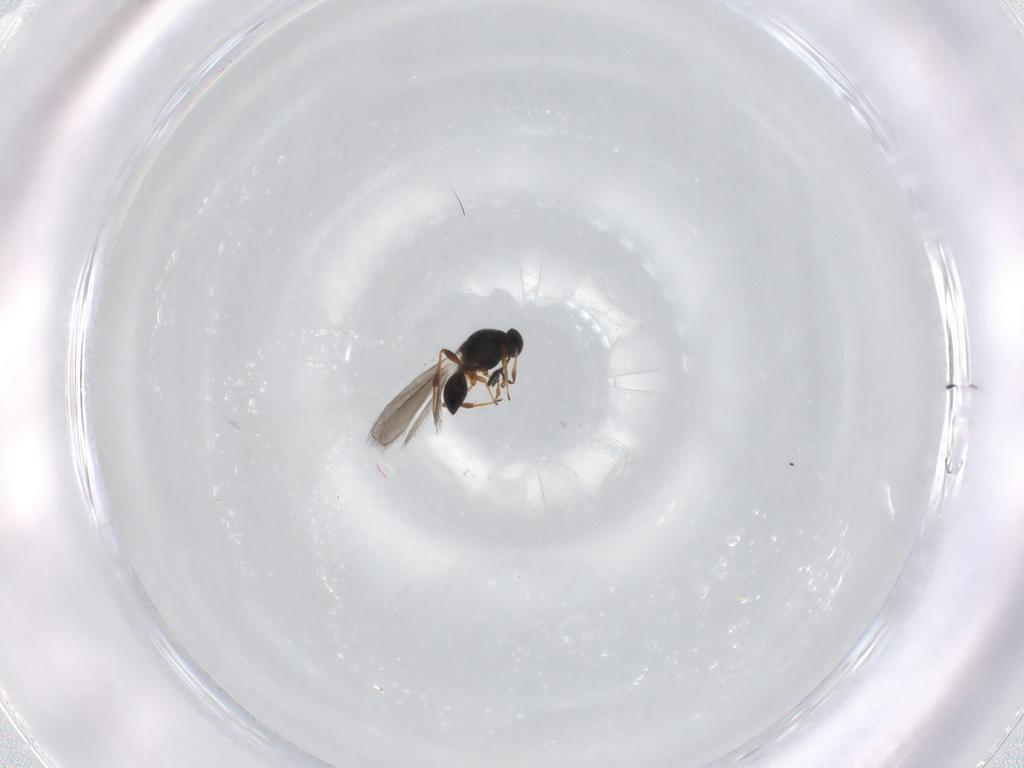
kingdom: Animalia
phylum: Arthropoda
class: Insecta
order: Hymenoptera
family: Platygastridae
